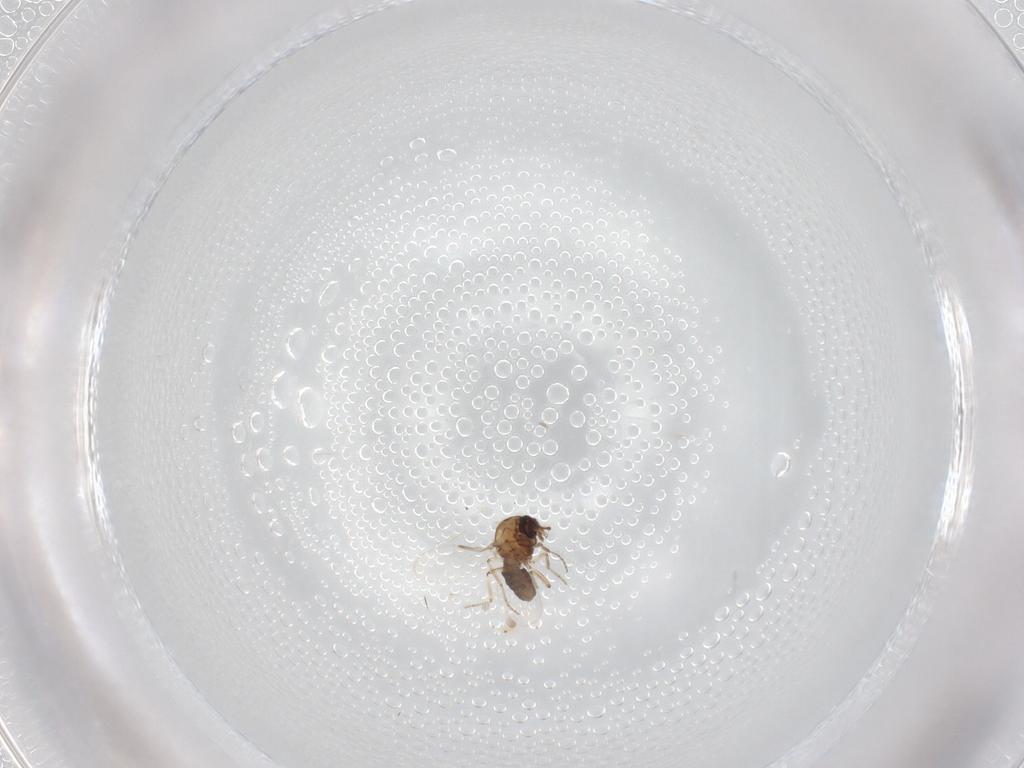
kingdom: Animalia
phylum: Arthropoda
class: Insecta
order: Diptera
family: Ceratopogonidae
